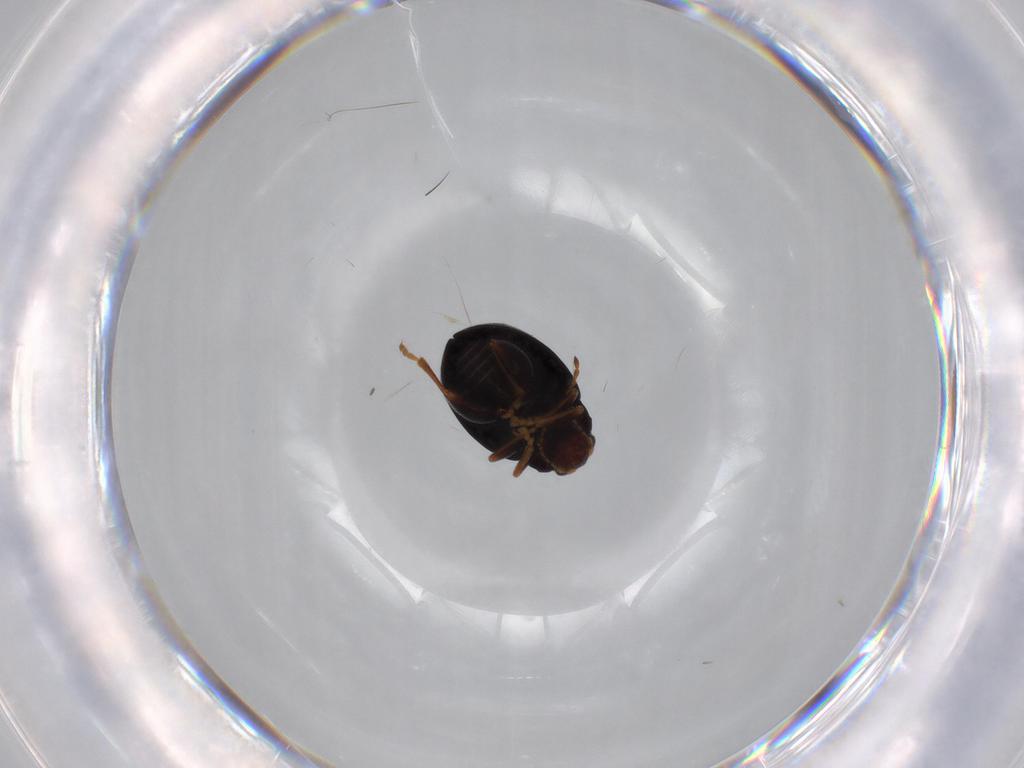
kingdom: Animalia
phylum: Arthropoda
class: Insecta
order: Coleoptera
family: Chrysomelidae
